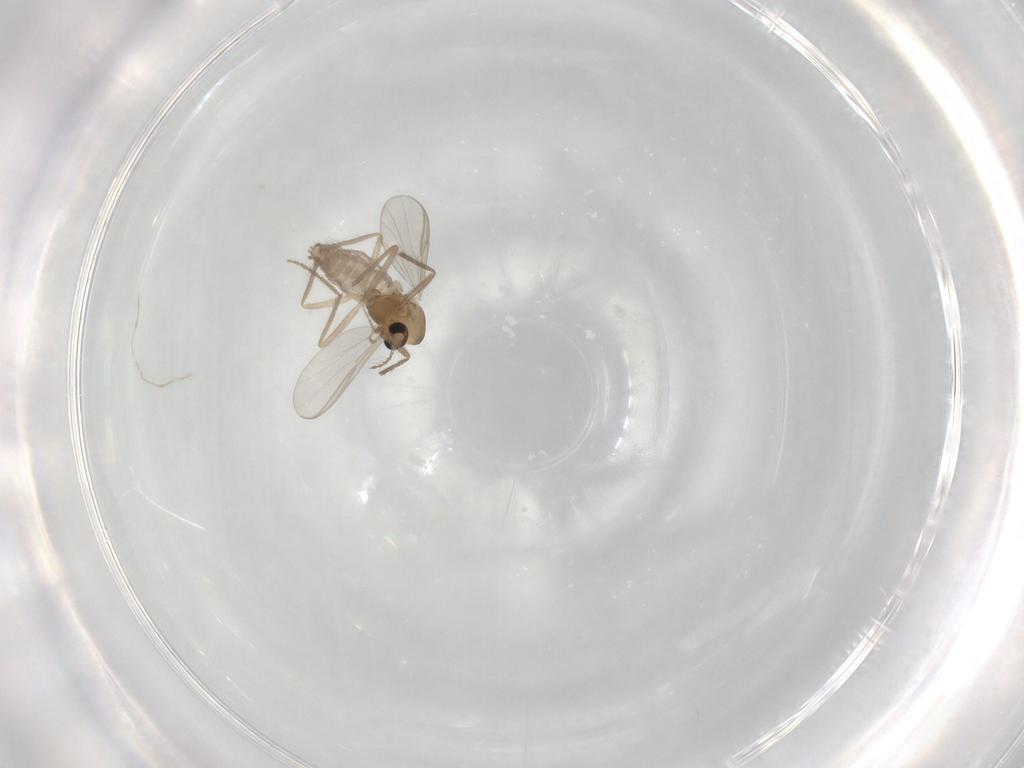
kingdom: Animalia
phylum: Arthropoda
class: Insecta
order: Diptera
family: Chironomidae
